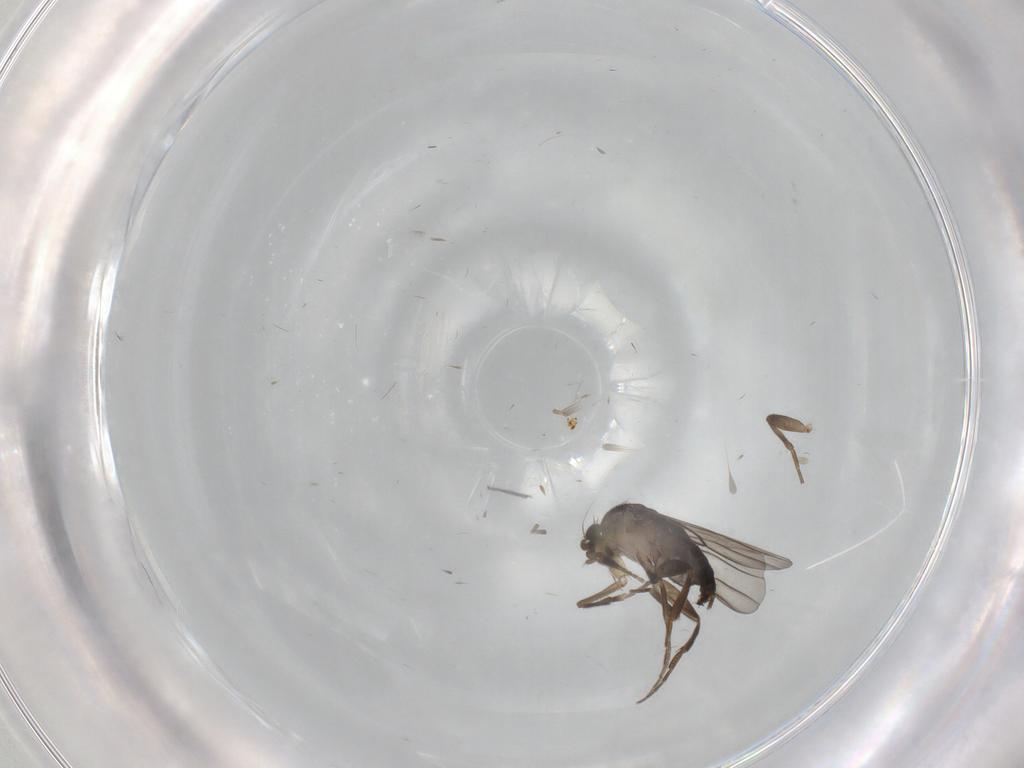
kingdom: Animalia
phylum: Arthropoda
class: Insecta
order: Diptera
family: Phoridae
